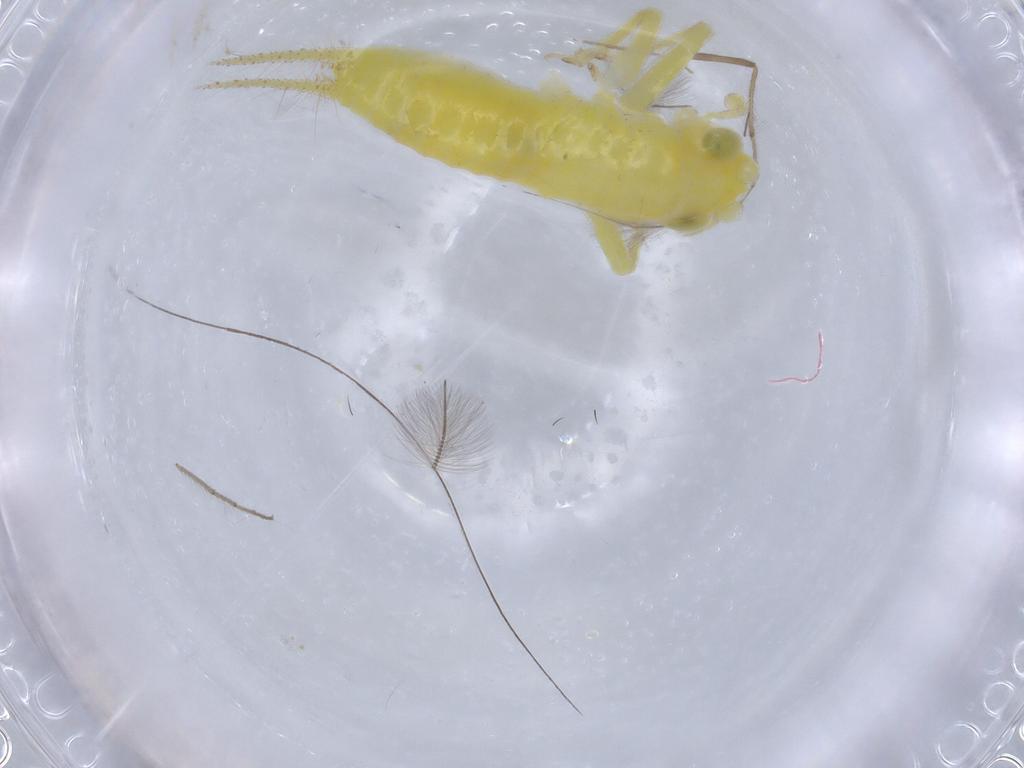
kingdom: Animalia
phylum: Arthropoda
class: Insecta
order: Orthoptera
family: Trigonidiidae
